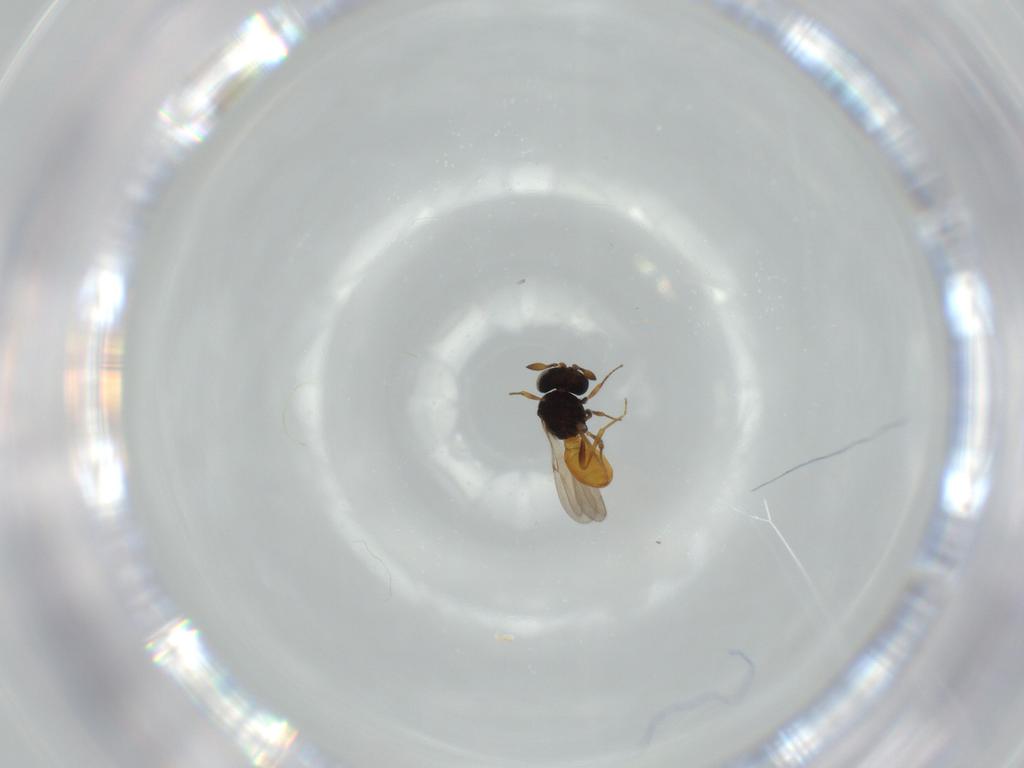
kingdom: Animalia
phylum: Arthropoda
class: Insecta
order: Hymenoptera
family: Scelionidae
